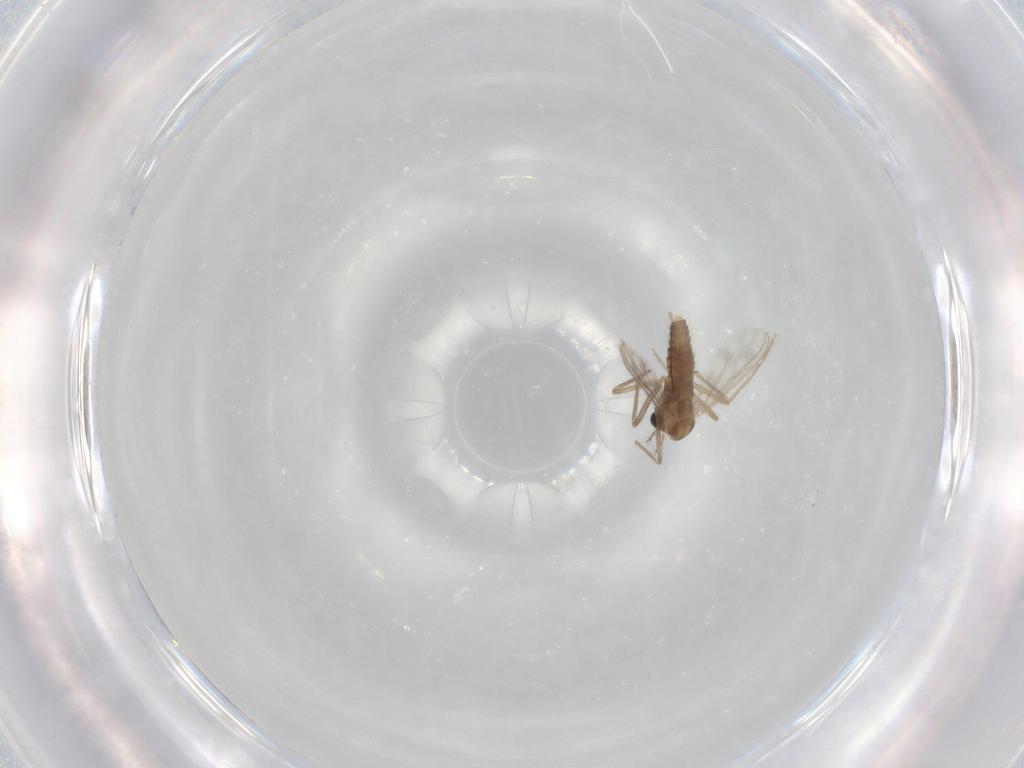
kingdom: Animalia
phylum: Arthropoda
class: Insecta
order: Diptera
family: Chironomidae
